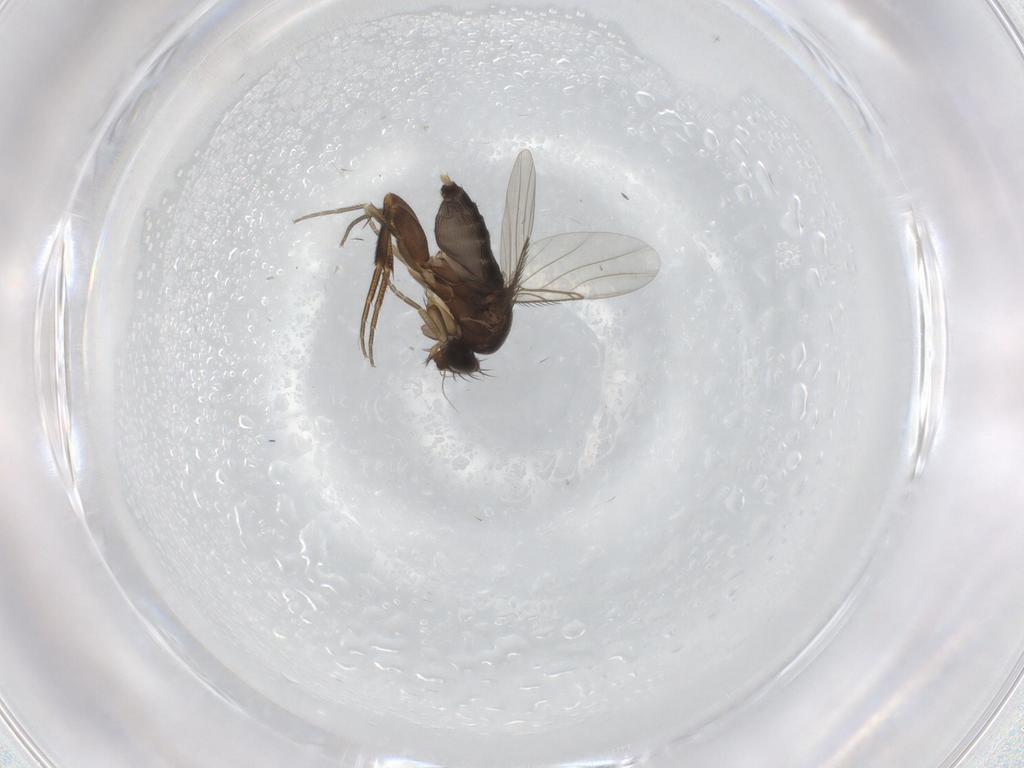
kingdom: Animalia
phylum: Arthropoda
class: Insecta
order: Diptera
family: Phoridae
